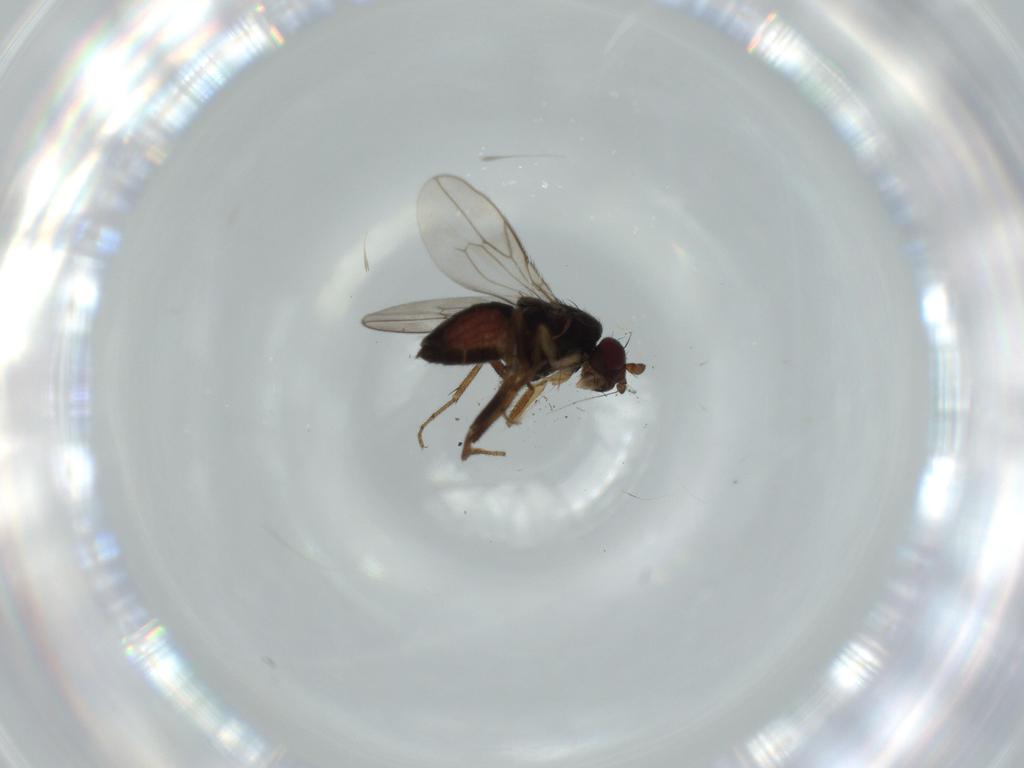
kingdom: Animalia
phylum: Arthropoda
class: Insecta
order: Diptera
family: Sphaeroceridae
